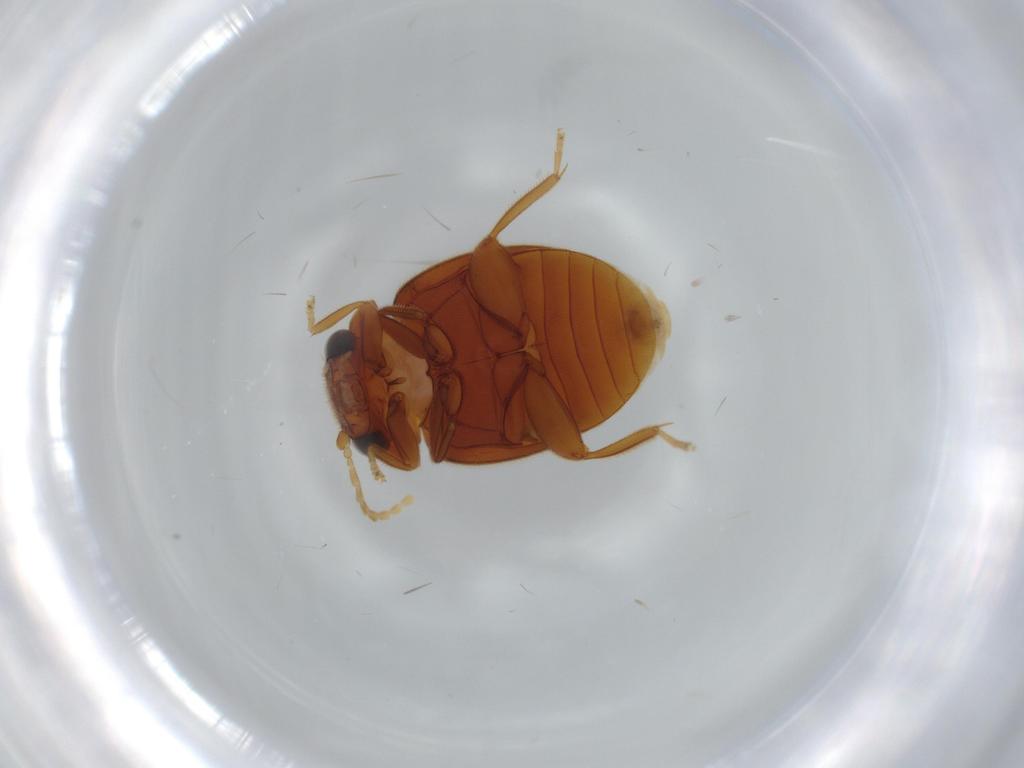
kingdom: Animalia
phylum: Arthropoda
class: Insecta
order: Coleoptera
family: Scirtidae
